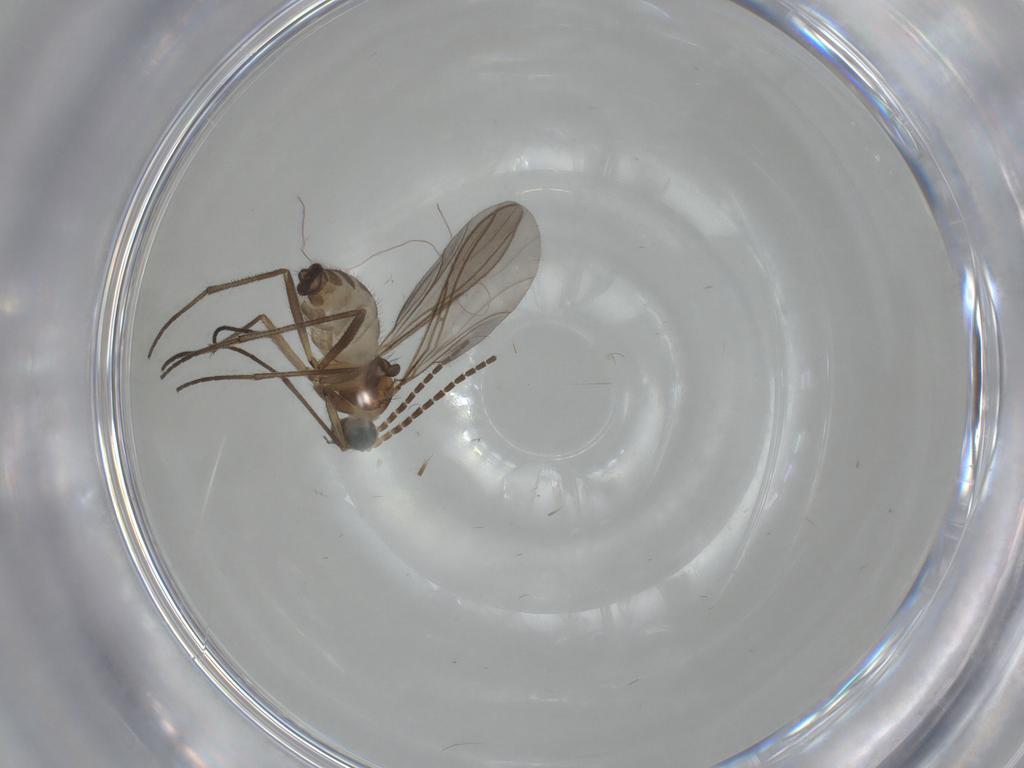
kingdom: Animalia
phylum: Arthropoda
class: Insecta
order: Diptera
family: Sciaridae
